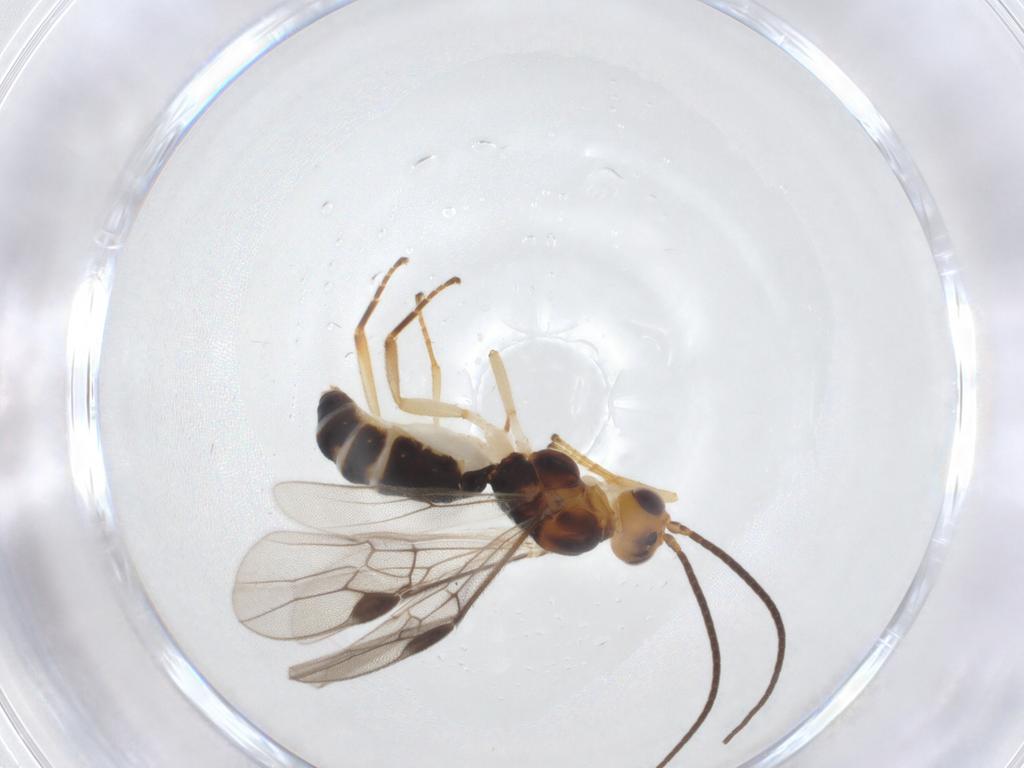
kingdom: Animalia
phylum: Arthropoda
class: Insecta
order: Hymenoptera
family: Braconidae
